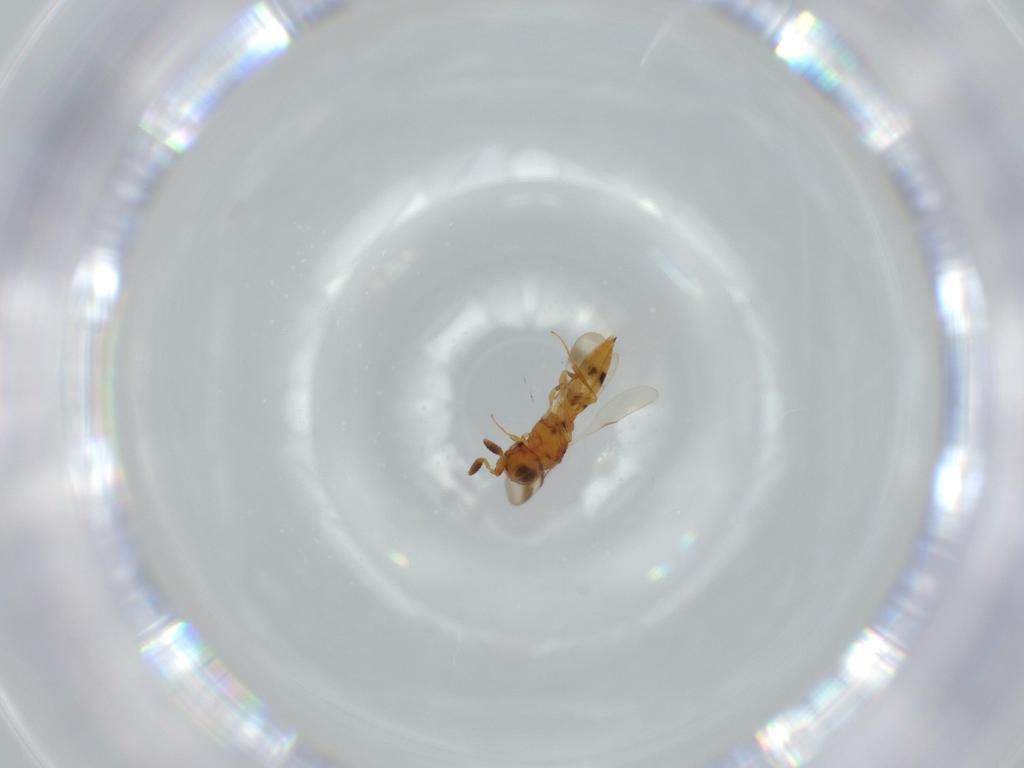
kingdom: Animalia
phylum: Arthropoda
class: Insecta
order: Hymenoptera
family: Scelionidae
